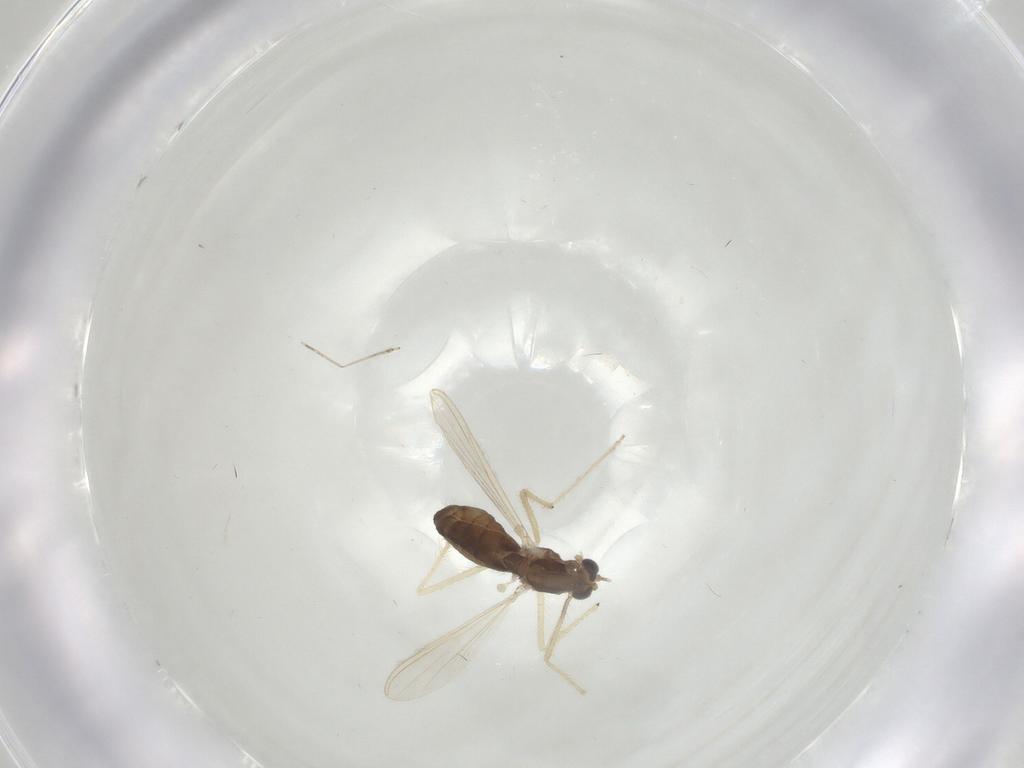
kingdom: Animalia
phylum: Arthropoda
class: Insecta
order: Diptera
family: Chironomidae
